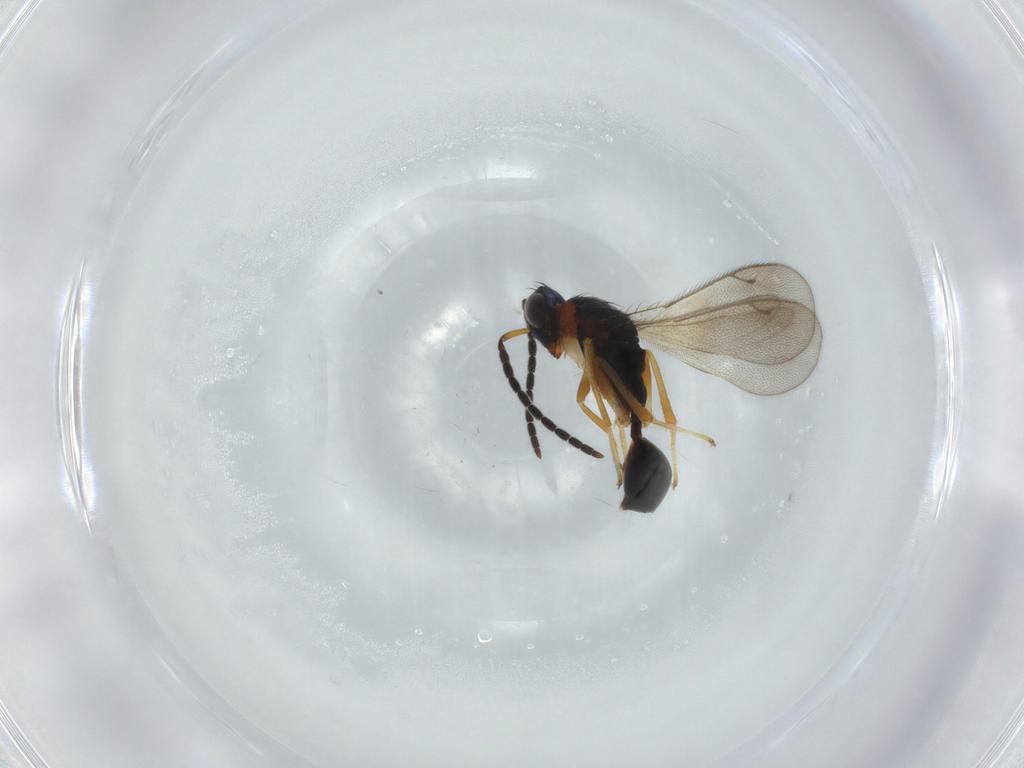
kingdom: Animalia
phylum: Arthropoda
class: Insecta
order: Hymenoptera
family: Diparidae
